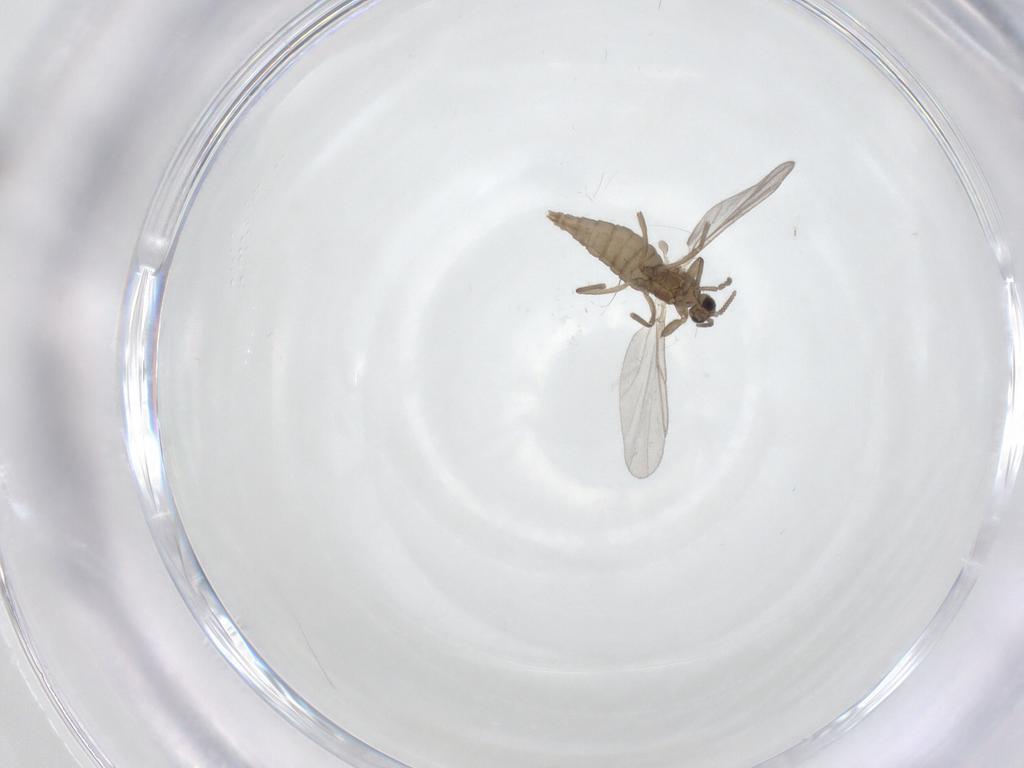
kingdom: Animalia
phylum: Arthropoda
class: Insecta
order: Diptera
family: Cecidomyiidae
